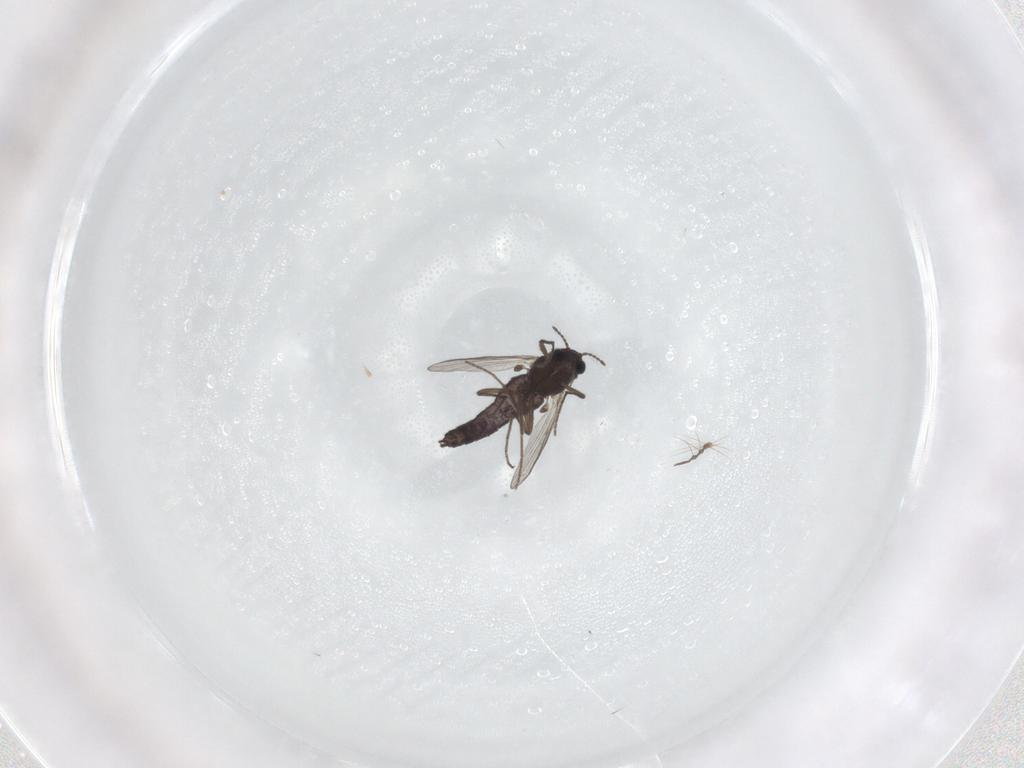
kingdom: Animalia
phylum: Arthropoda
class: Insecta
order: Diptera
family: Chironomidae
